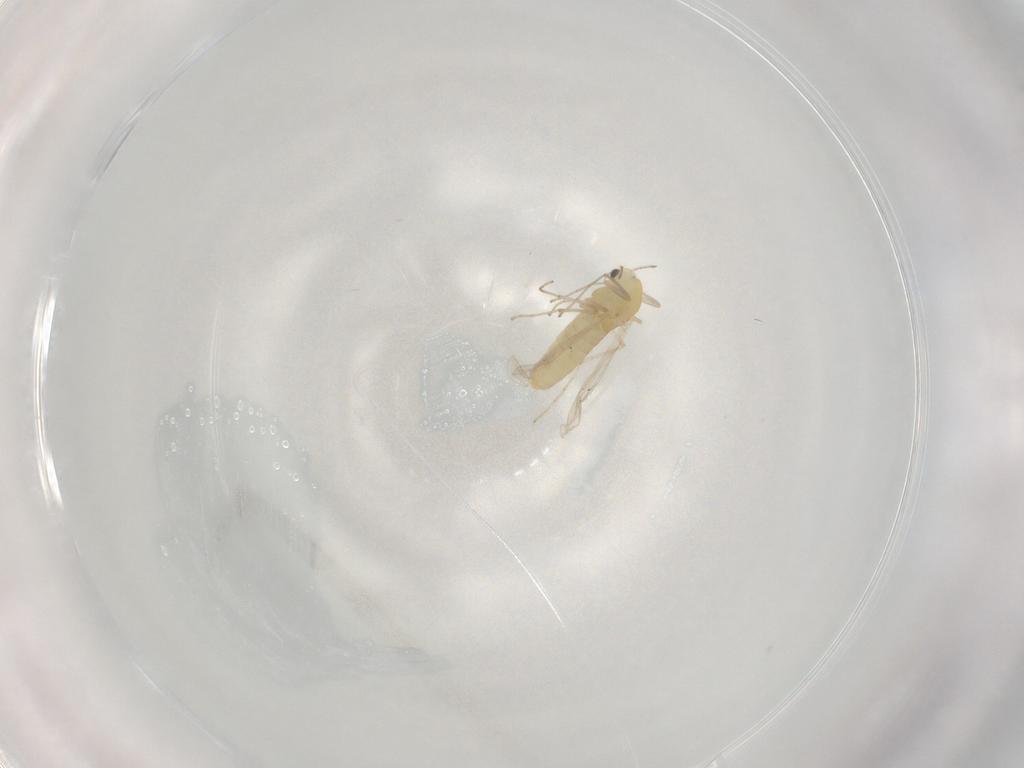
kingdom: Animalia
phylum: Arthropoda
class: Insecta
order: Diptera
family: Chironomidae
